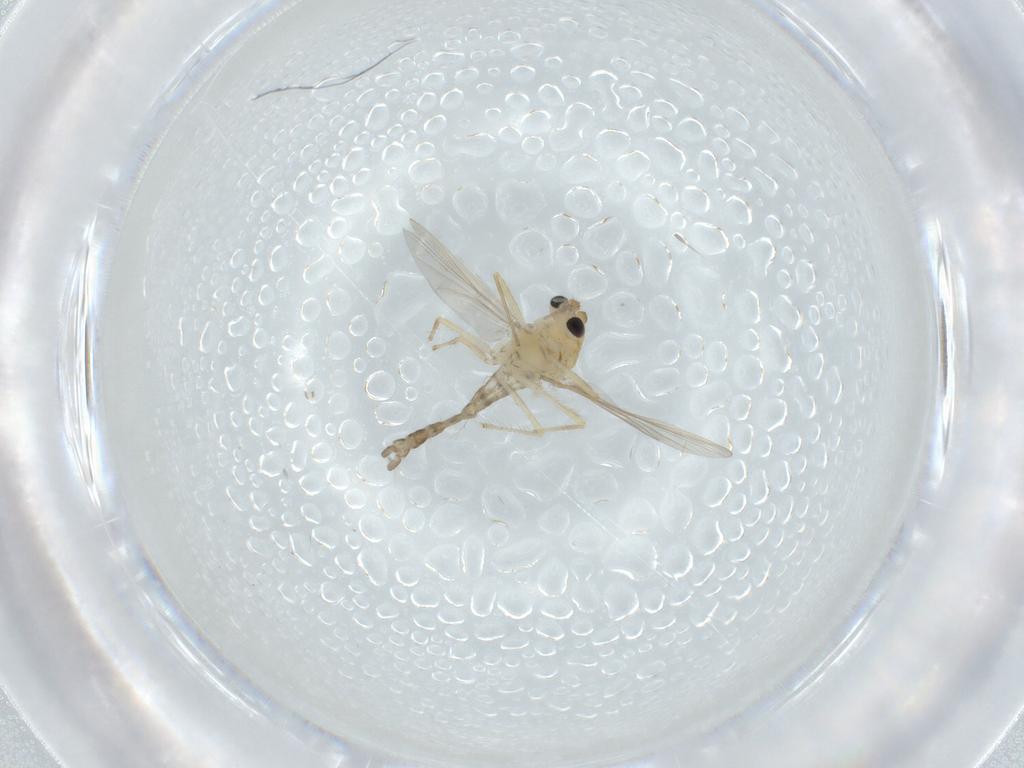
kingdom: Animalia
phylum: Arthropoda
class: Insecta
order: Diptera
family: Chironomidae
